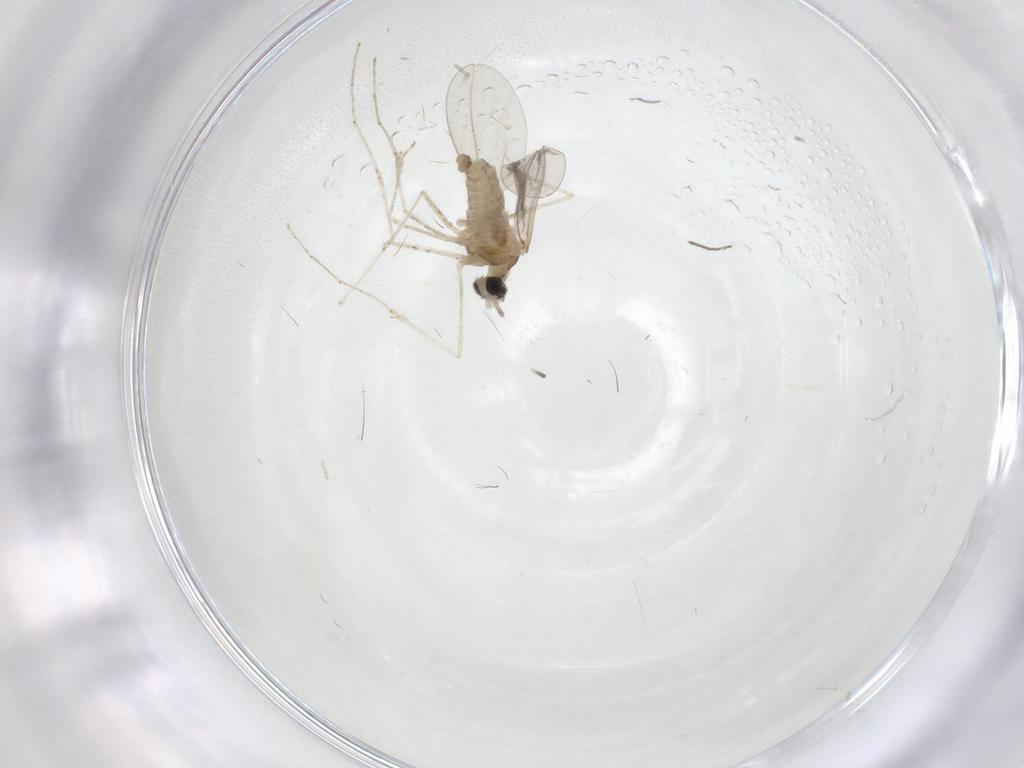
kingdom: Animalia
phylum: Arthropoda
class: Insecta
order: Diptera
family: Cecidomyiidae
